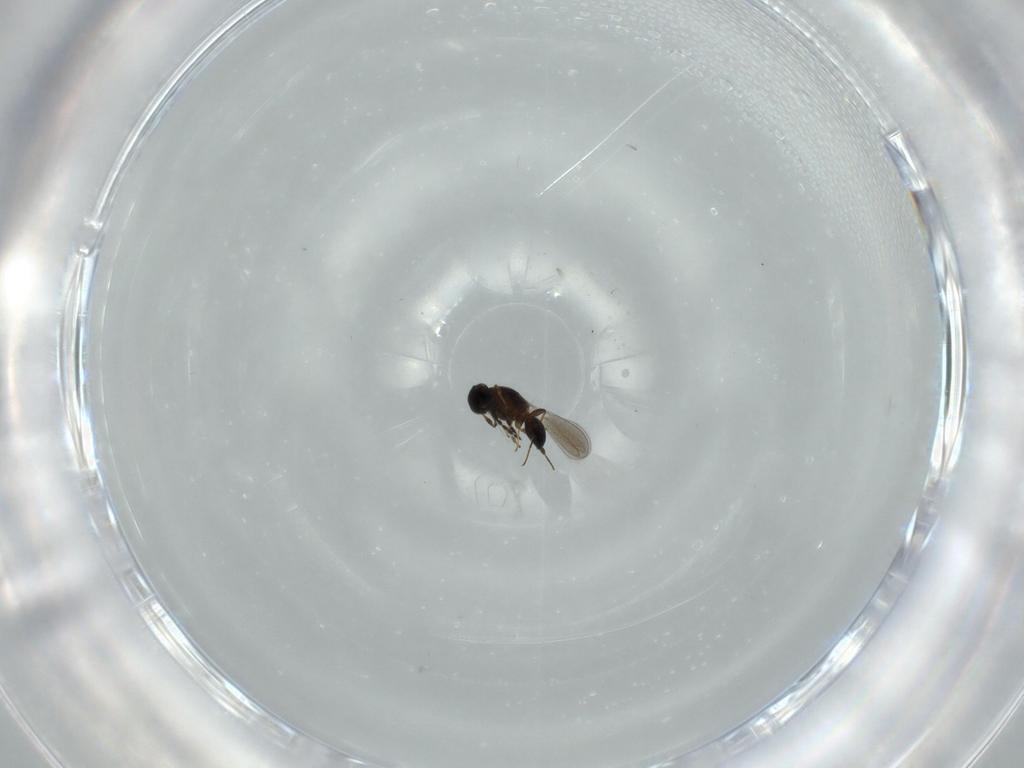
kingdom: Animalia
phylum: Arthropoda
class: Insecta
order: Hymenoptera
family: Platygastridae
